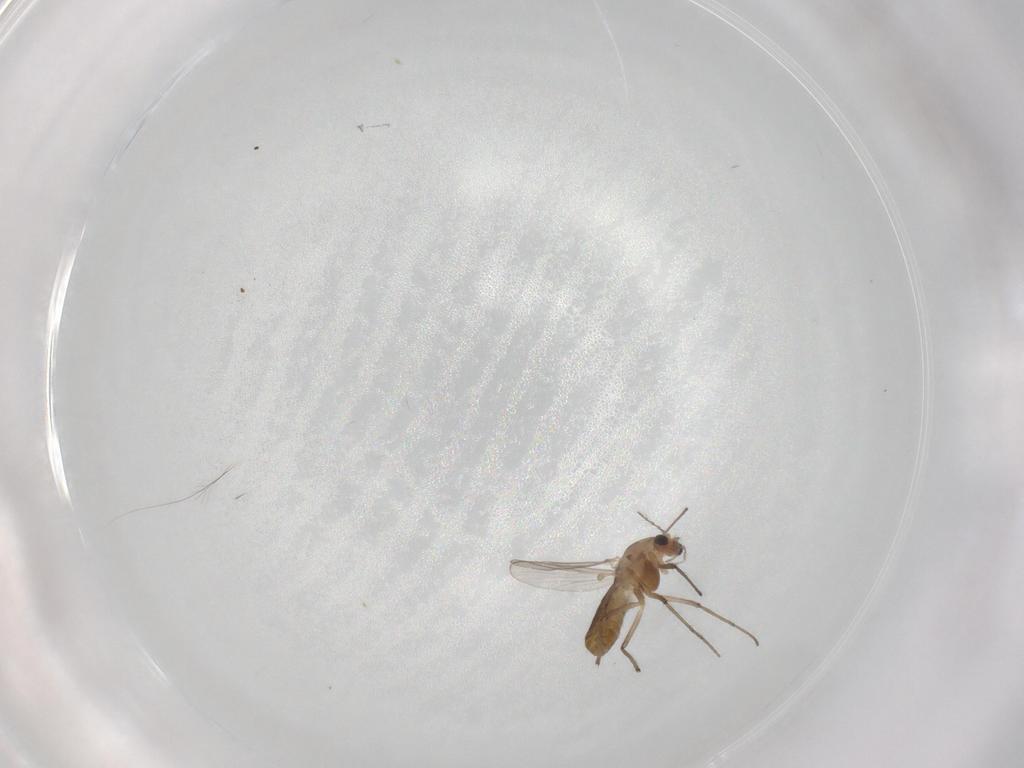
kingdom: Animalia
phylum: Arthropoda
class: Insecta
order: Diptera
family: Chironomidae
